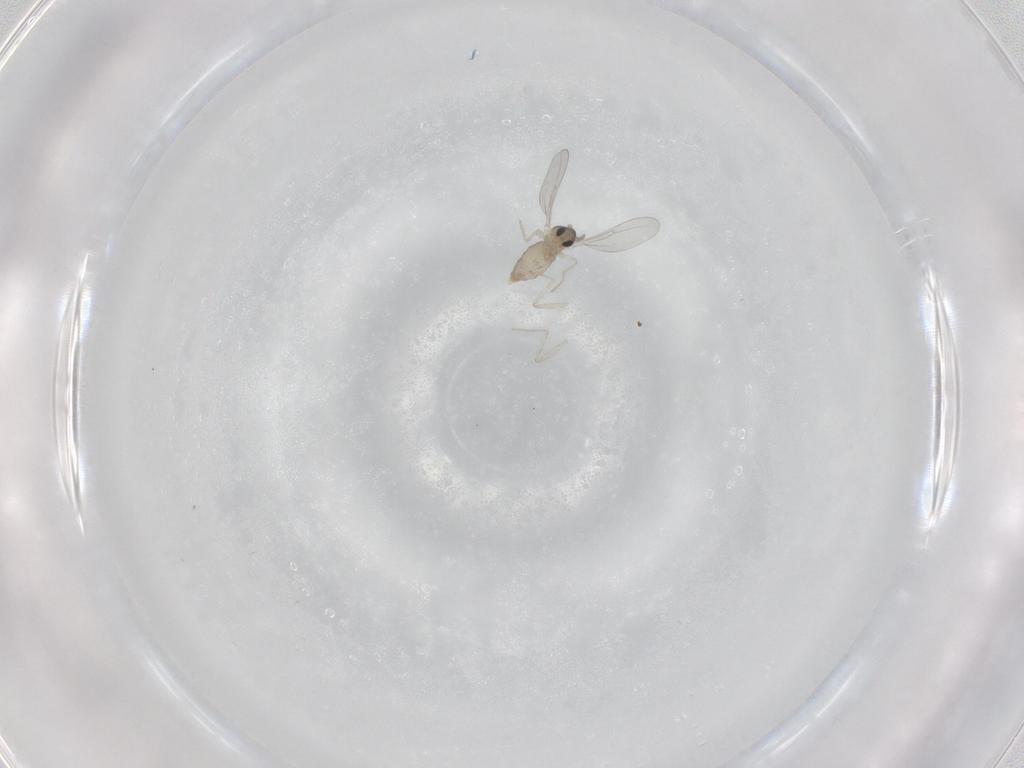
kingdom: Animalia
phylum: Arthropoda
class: Insecta
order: Diptera
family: Cecidomyiidae
